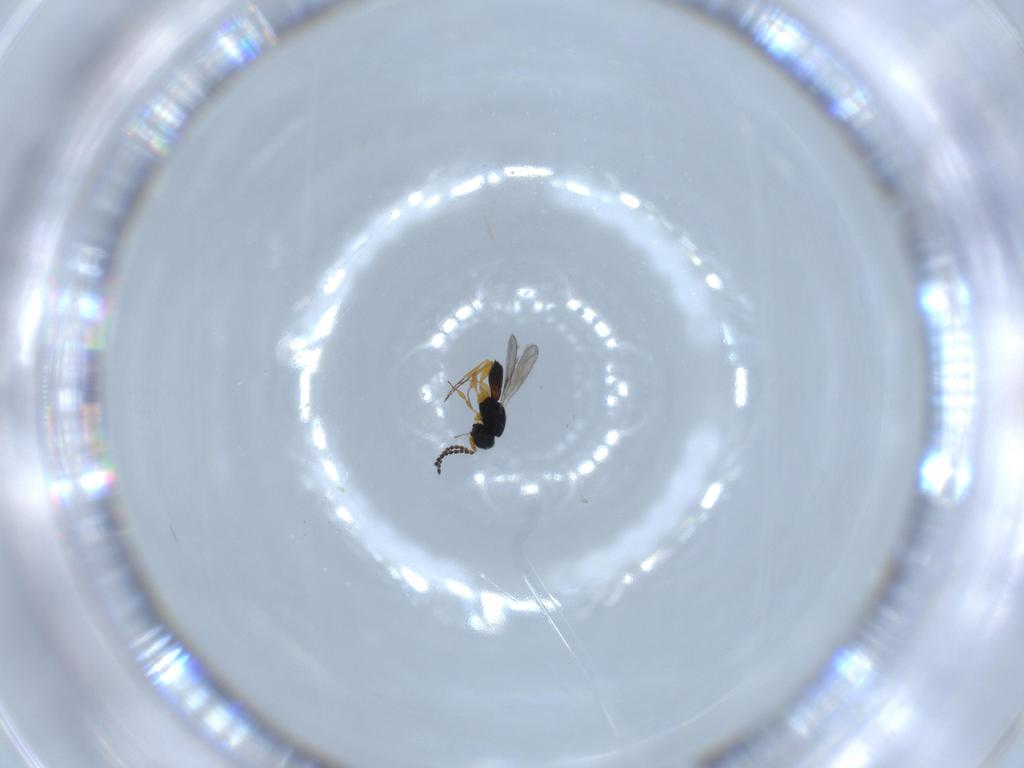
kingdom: Animalia
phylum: Arthropoda
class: Insecta
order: Hymenoptera
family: Scelionidae
